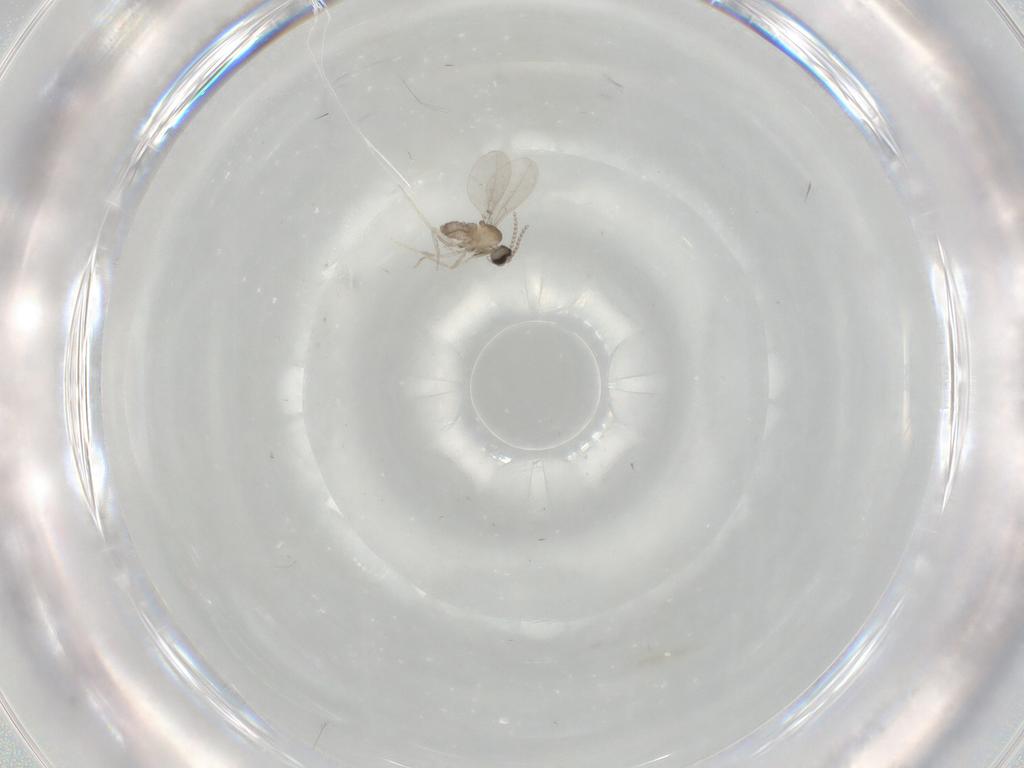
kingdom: Animalia
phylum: Arthropoda
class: Insecta
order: Diptera
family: Cecidomyiidae
